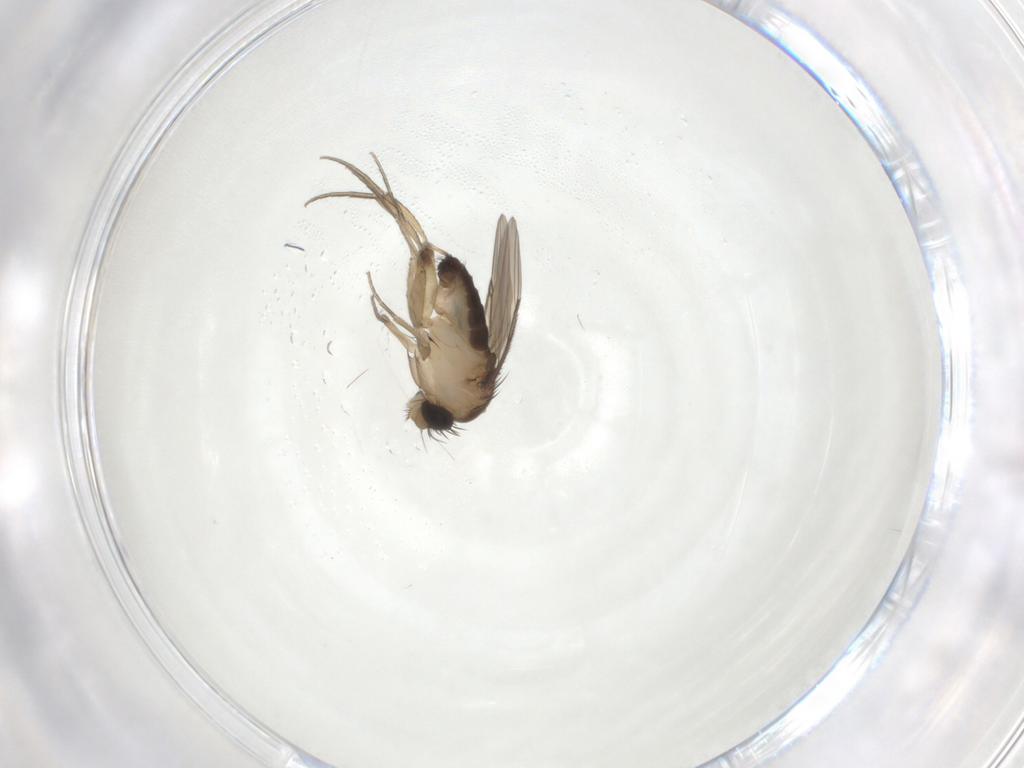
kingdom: Animalia
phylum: Arthropoda
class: Insecta
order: Diptera
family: Phoridae
